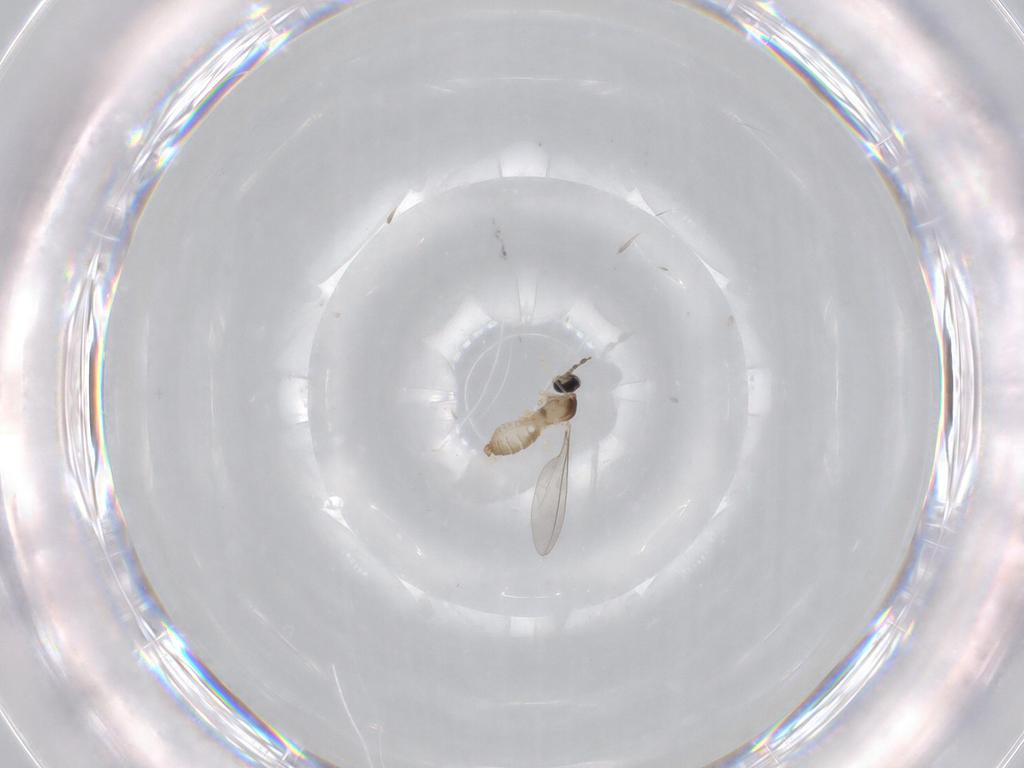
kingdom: Animalia
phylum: Arthropoda
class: Insecta
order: Diptera
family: Cecidomyiidae
